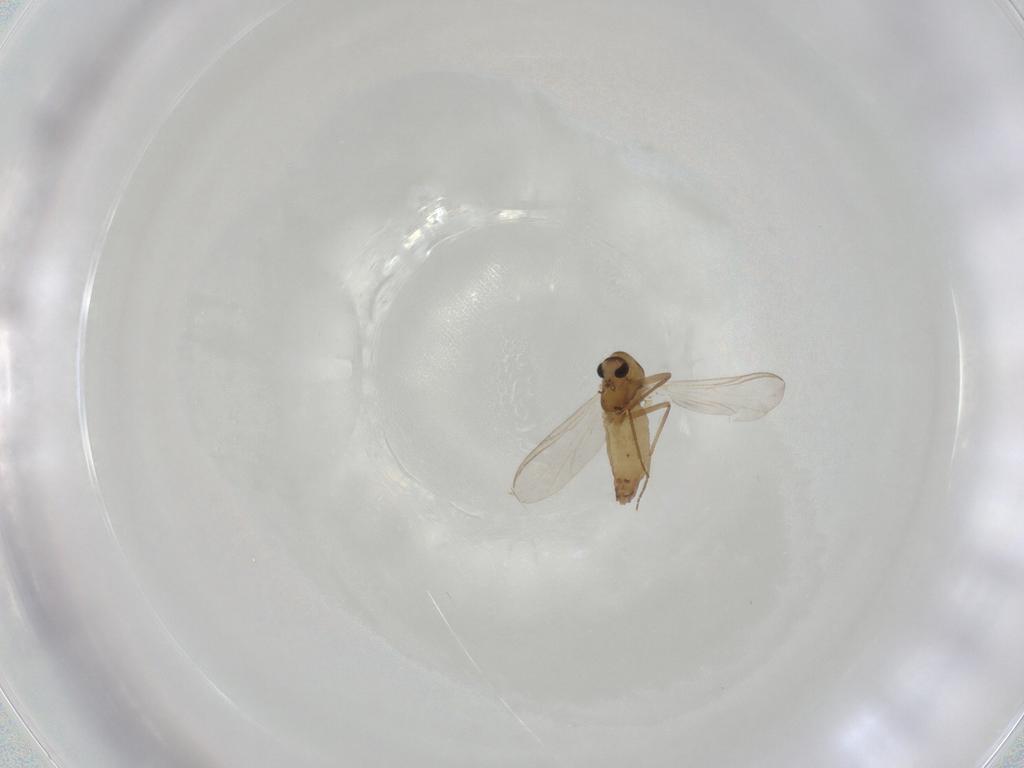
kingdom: Animalia
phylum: Arthropoda
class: Insecta
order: Diptera
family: Chironomidae
